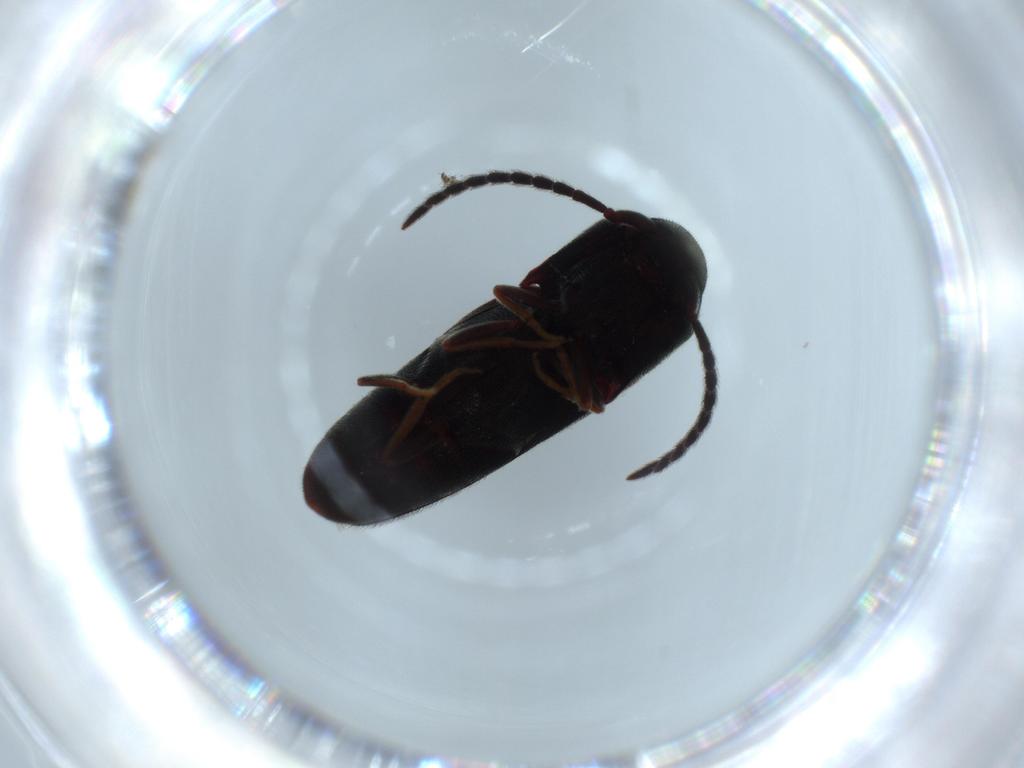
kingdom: Animalia
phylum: Arthropoda
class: Insecta
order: Coleoptera
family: Eucnemidae
